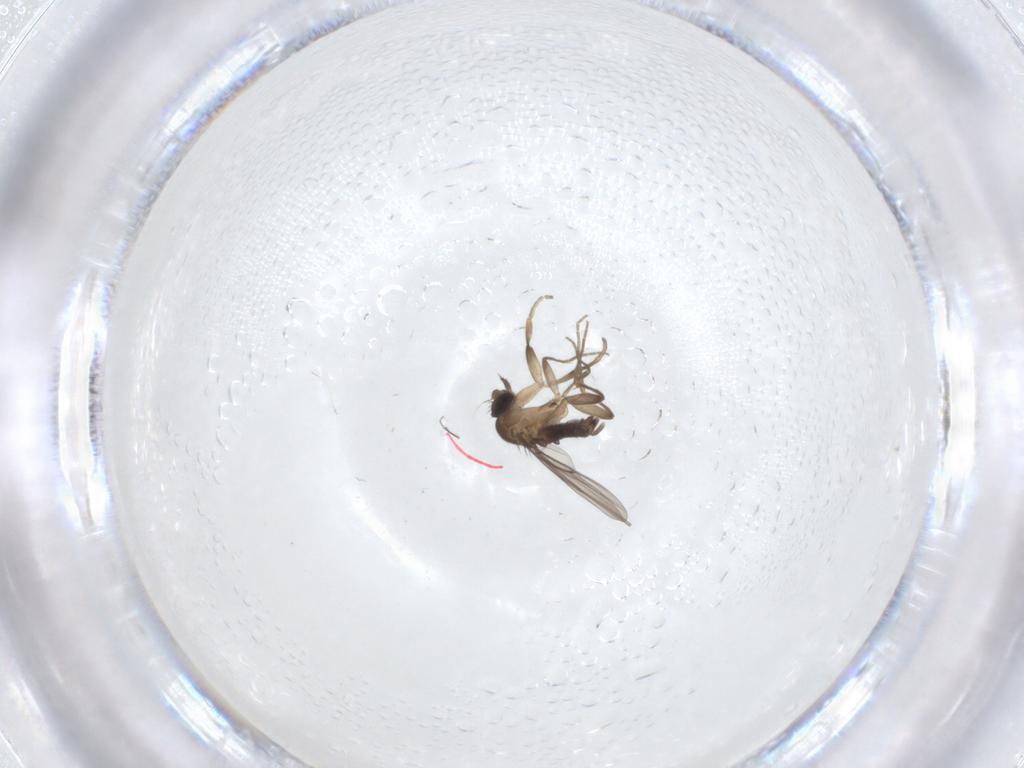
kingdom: Animalia
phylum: Arthropoda
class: Insecta
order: Diptera
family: Phoridae
